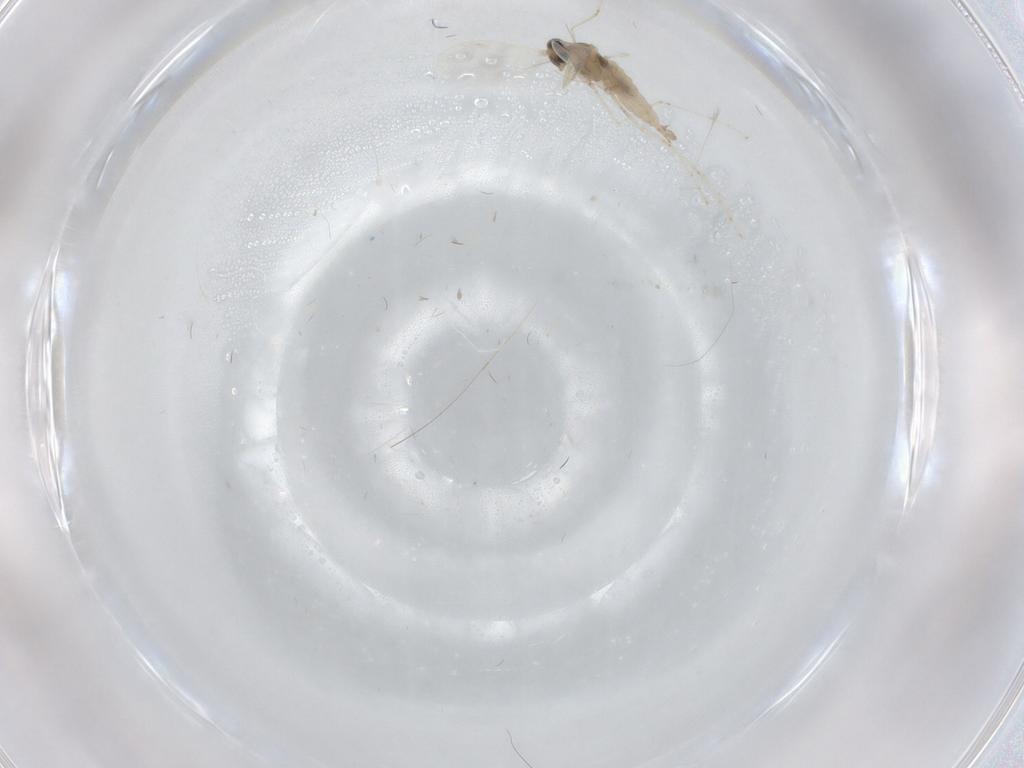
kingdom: Animalia
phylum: Arthropoda
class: Insecta
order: Diptera
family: Cecidomyiidae
